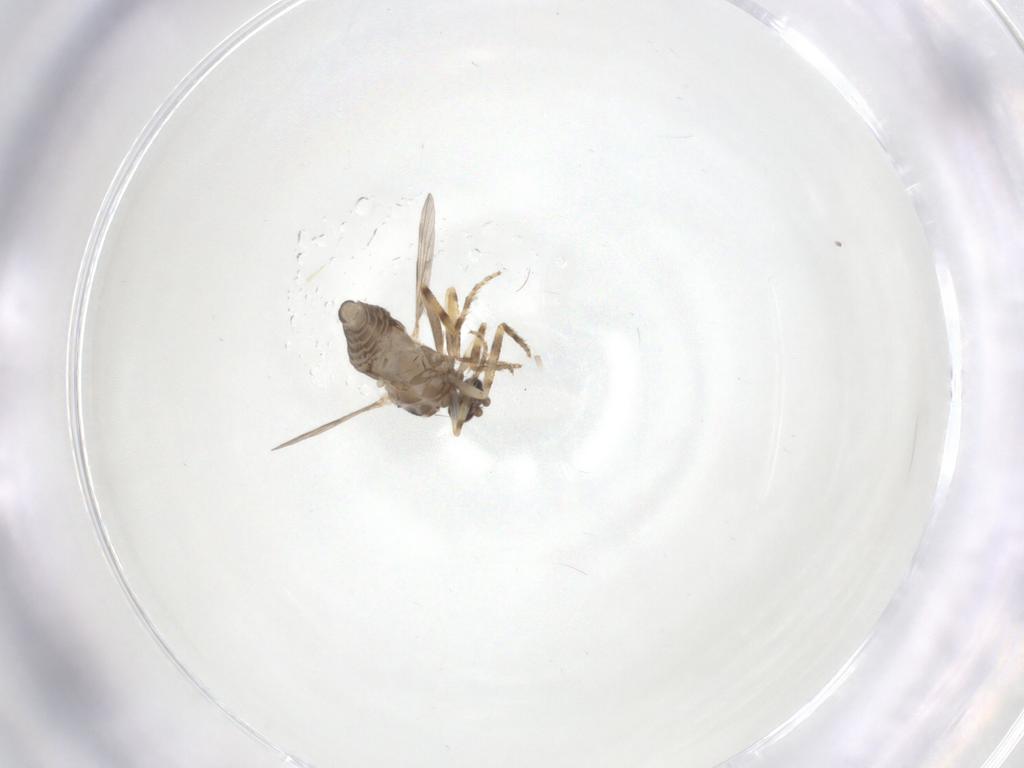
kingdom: Animalia
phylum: Arthropoda
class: Insecta
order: Diptera
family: Ceratopogonidae
